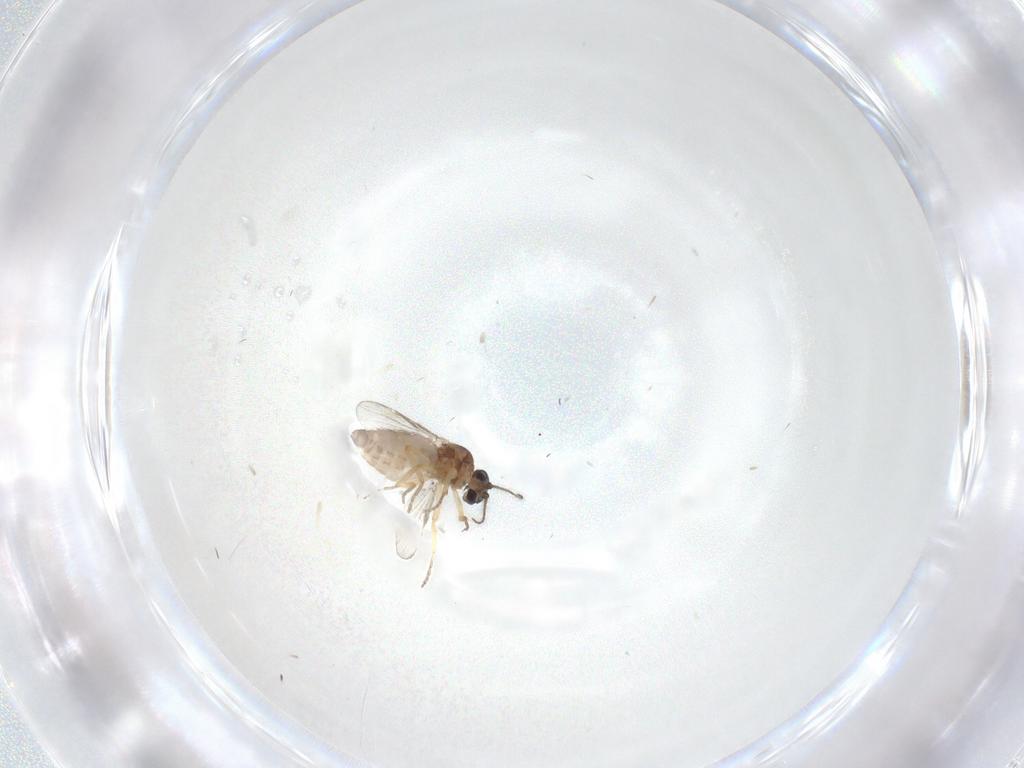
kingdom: Animalia
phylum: Arthropoda
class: Insecta
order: Diptera
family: Ceratopogonidae
